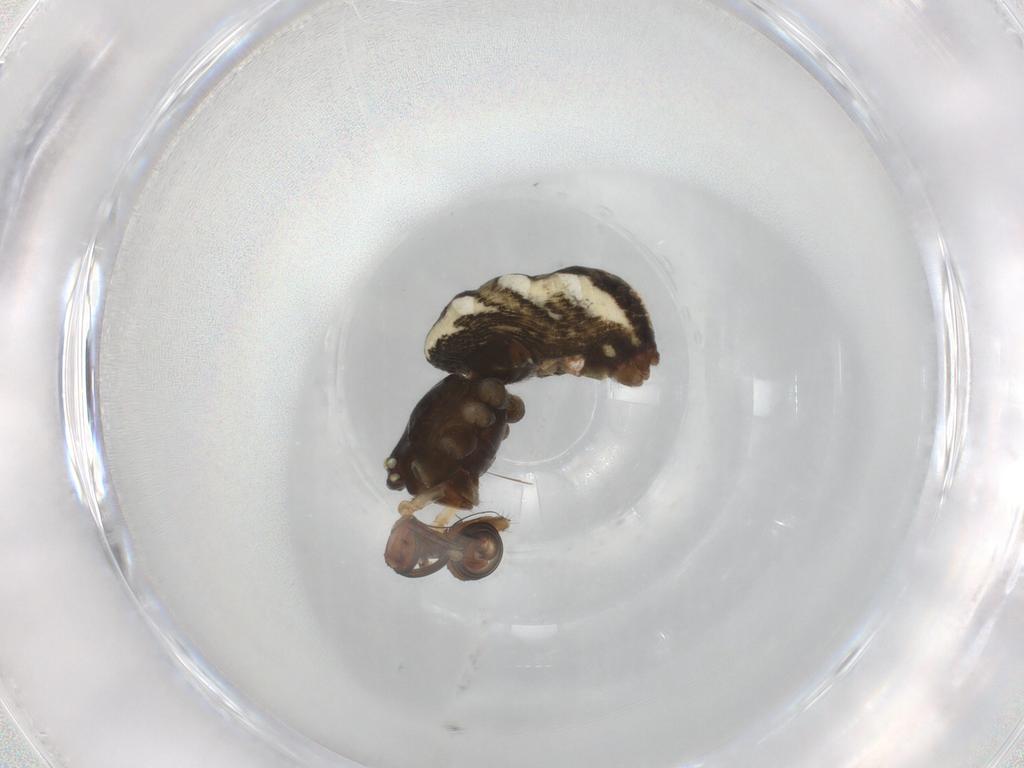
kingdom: Animalia
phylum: Arthropoda
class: Arachnida
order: Araneae
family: Theridiidae
